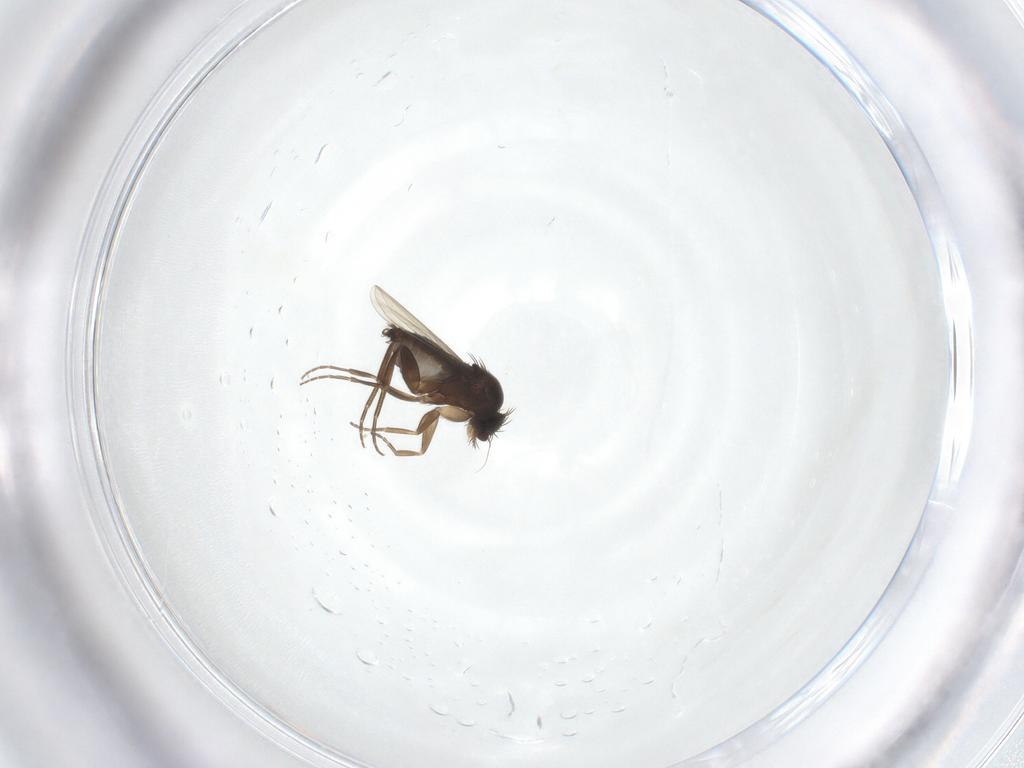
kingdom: Animalia
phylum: Arthropoda
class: Insecta
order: Diptera
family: Phoridae
